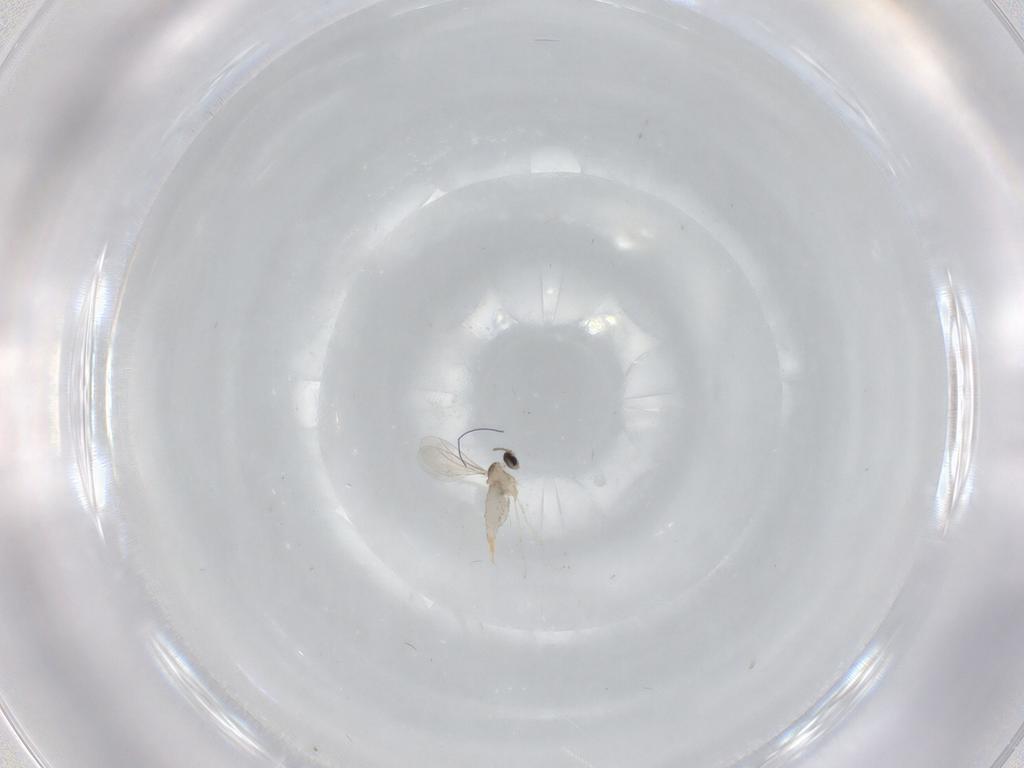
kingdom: Animalia
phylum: Arthropoda
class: Insecta
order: Diptera
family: Cecidomyiidae
